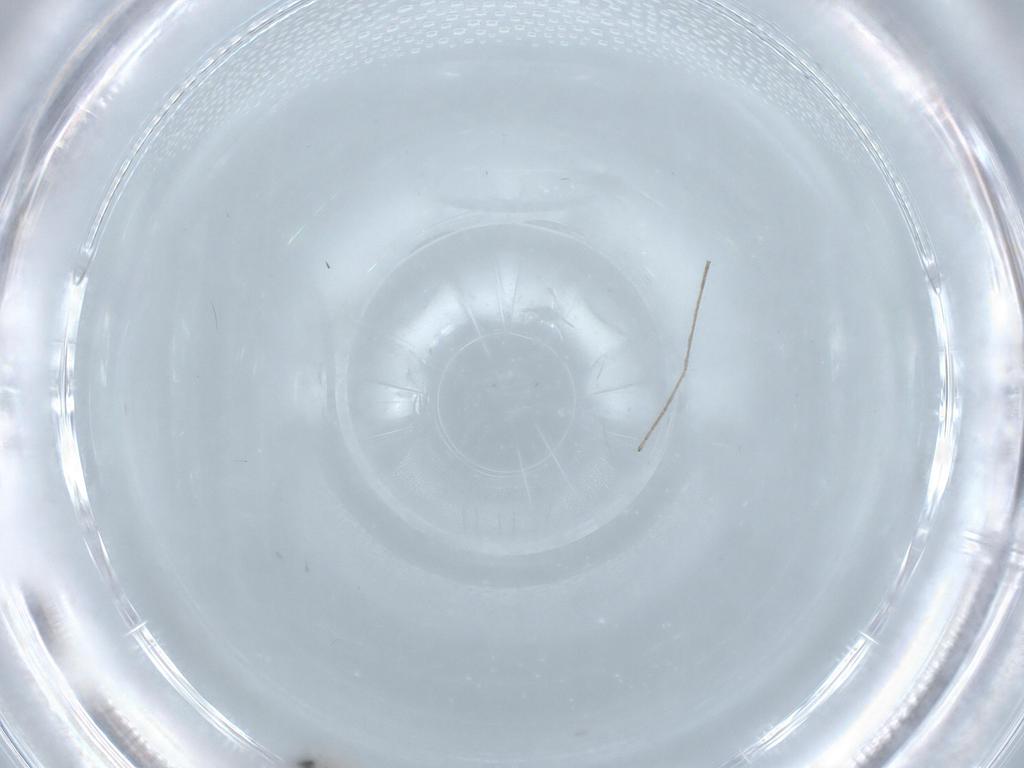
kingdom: Animalia
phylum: Arthropoda
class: Insecta
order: Diptera
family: Cecidomyiidae
